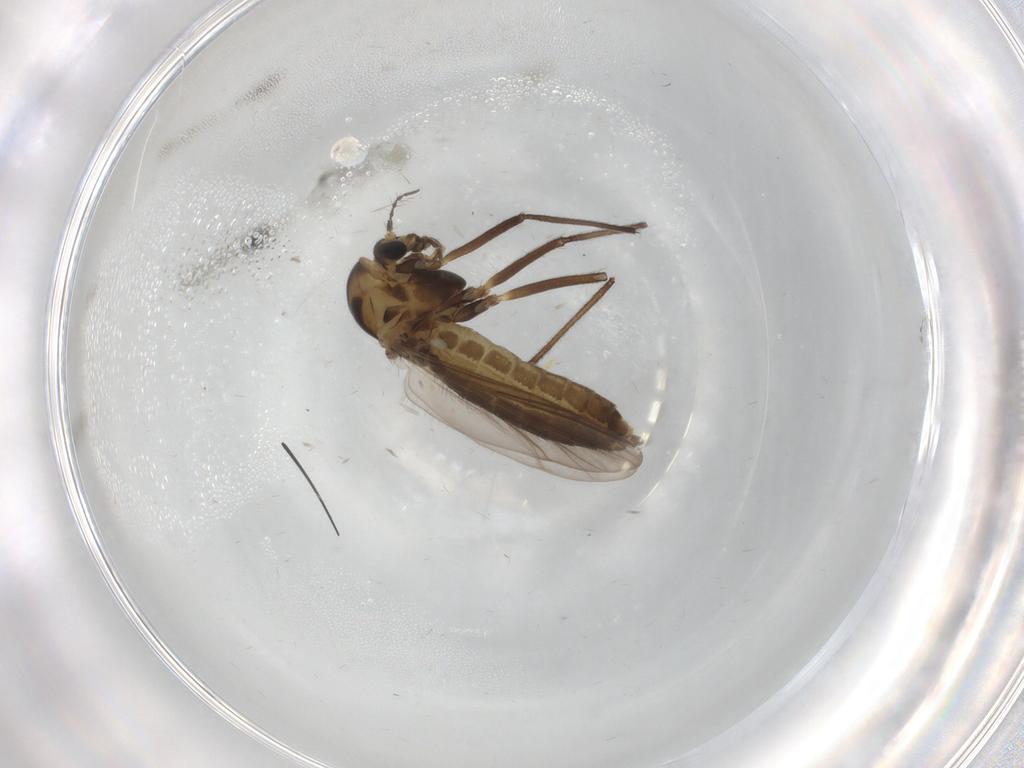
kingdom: Animalia
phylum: Arthropoda
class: Insecta
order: Diptera
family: Chironomidae
